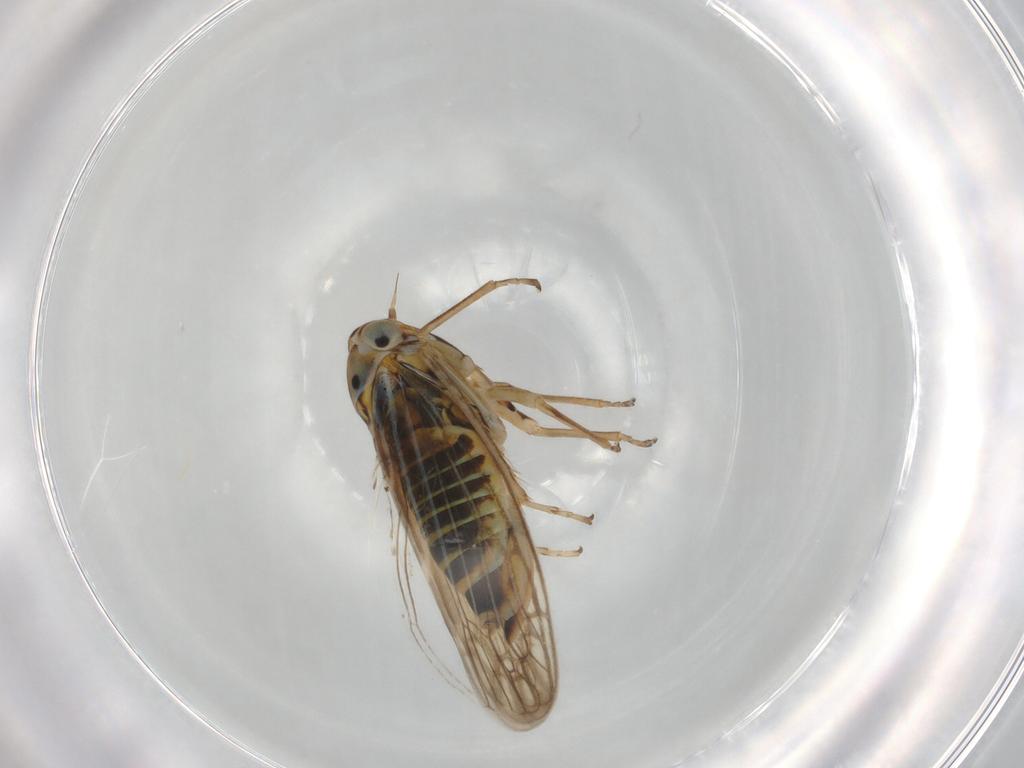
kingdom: Animalia
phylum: Arthropoda
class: Insecta
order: Hemiptera
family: Cicadellidae
